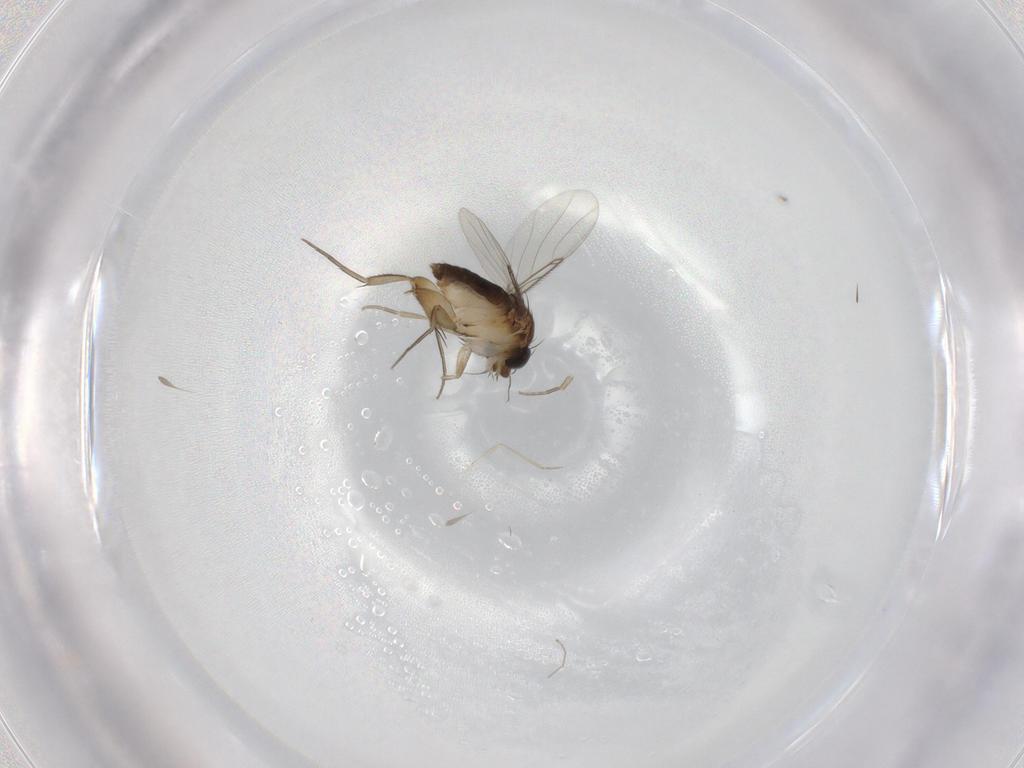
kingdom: Animalia
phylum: Arthropoda
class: Insecta
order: Diptera
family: Phoridae
